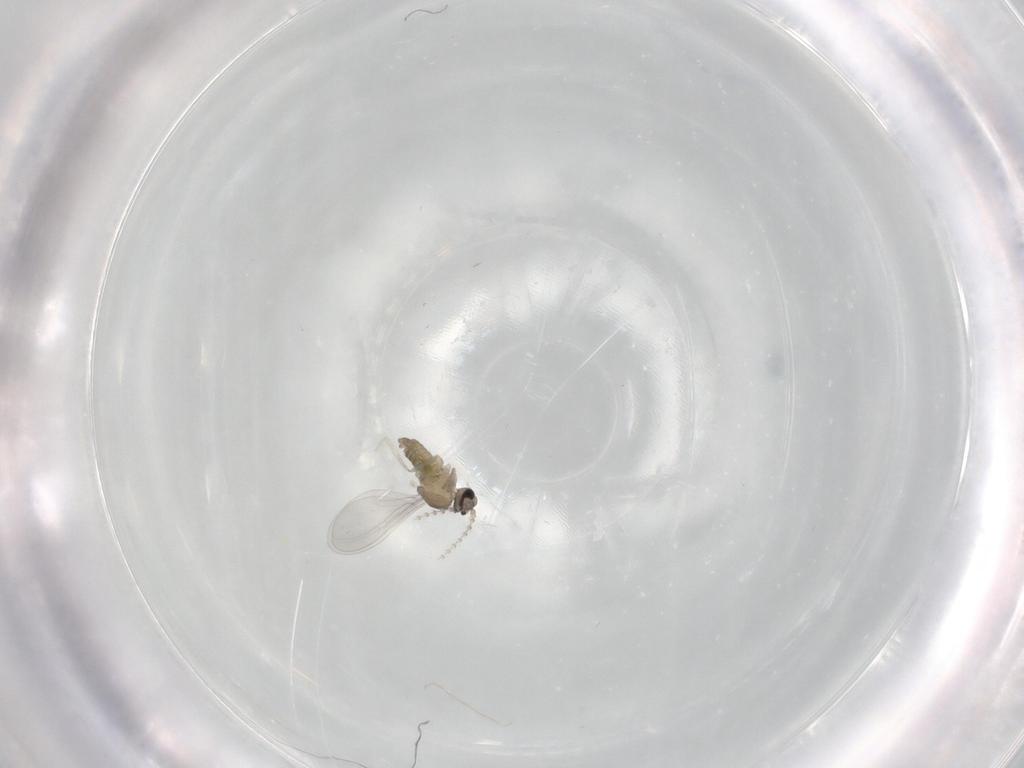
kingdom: Animalia
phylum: Arthropoda
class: Insecta
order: Diptera
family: Cecidomyiidae
